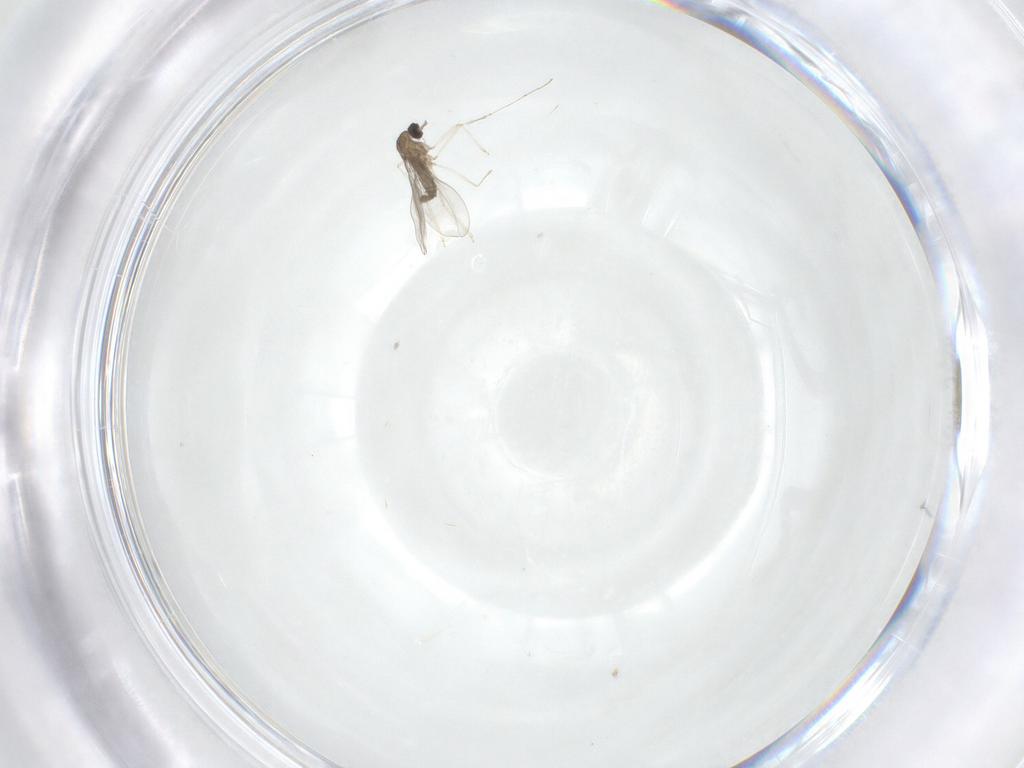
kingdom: Animalia
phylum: Arthropoda
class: Insecta
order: Diptera
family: Cecidomyiidae
